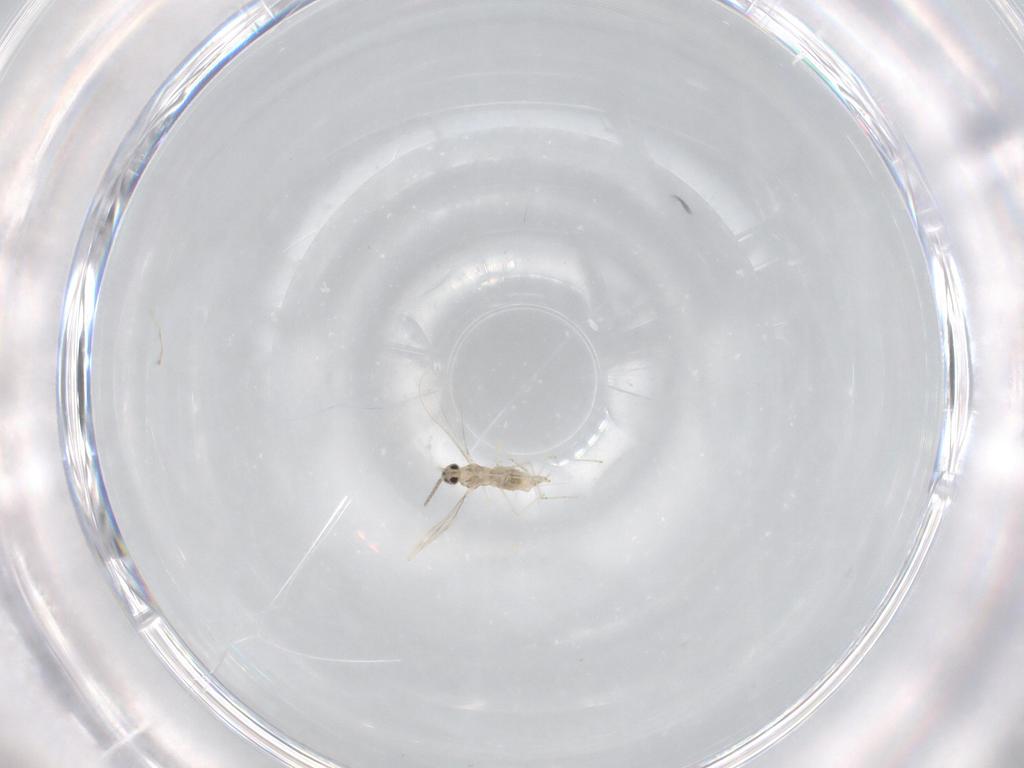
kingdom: Animalia
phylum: Arthropoda
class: Insecta
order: Diptera
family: Cecidomyiidae
